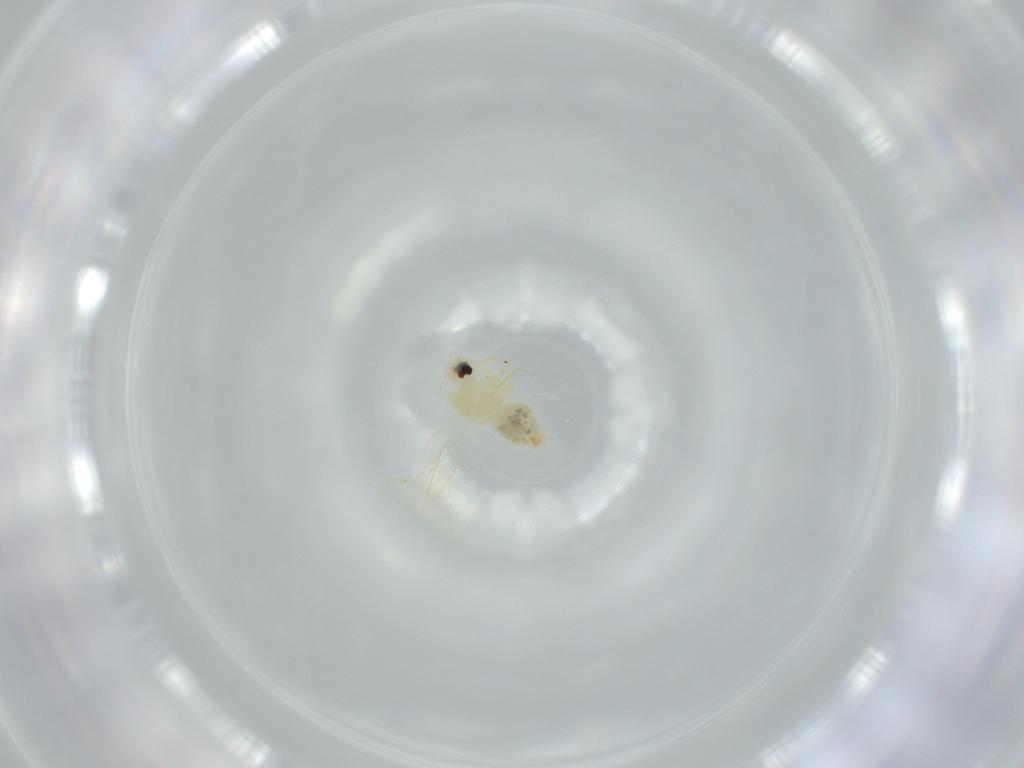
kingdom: Animalia
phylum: Arthropoda
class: Insecta
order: Hemiptera
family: Aleyrodidae
